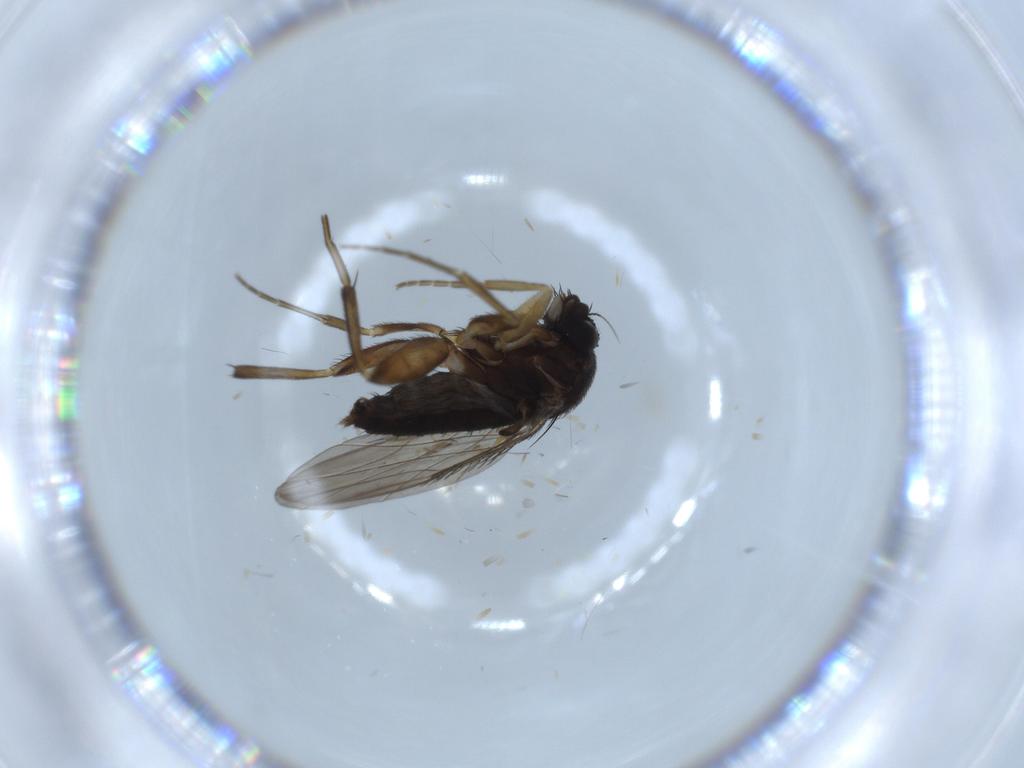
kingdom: Animalia
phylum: Arthropoda
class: Insecta
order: Diptera
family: Phoridae
